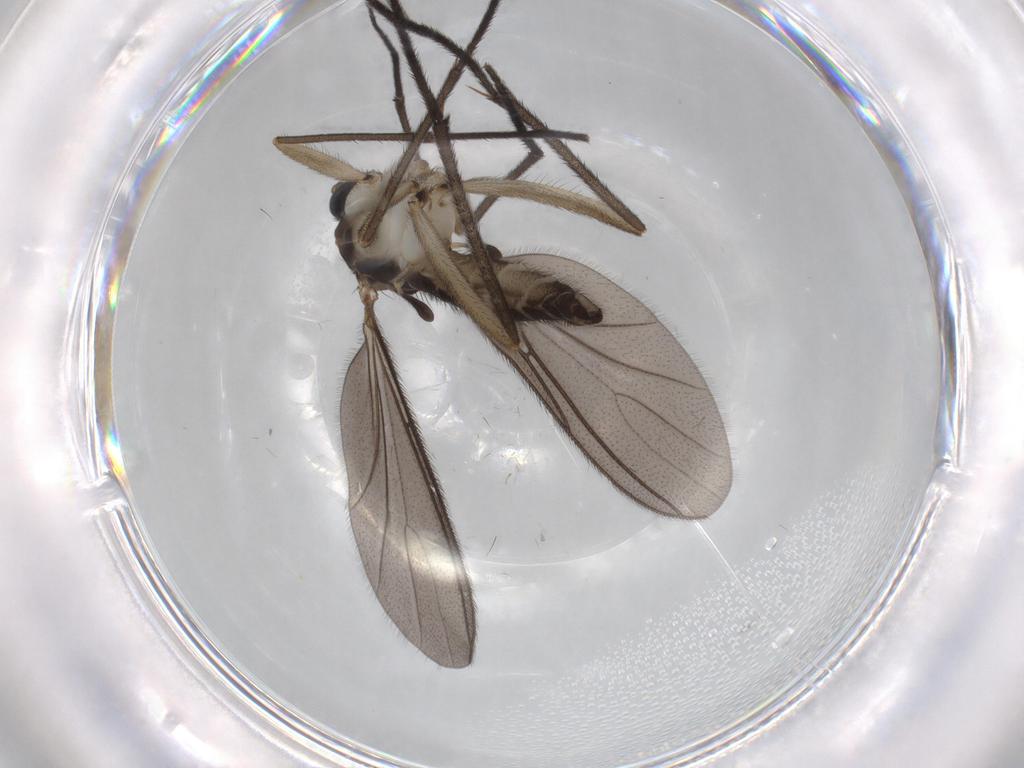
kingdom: Animalia
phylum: Arthropoda
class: Insecta
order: Diptera
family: Sciaridae
